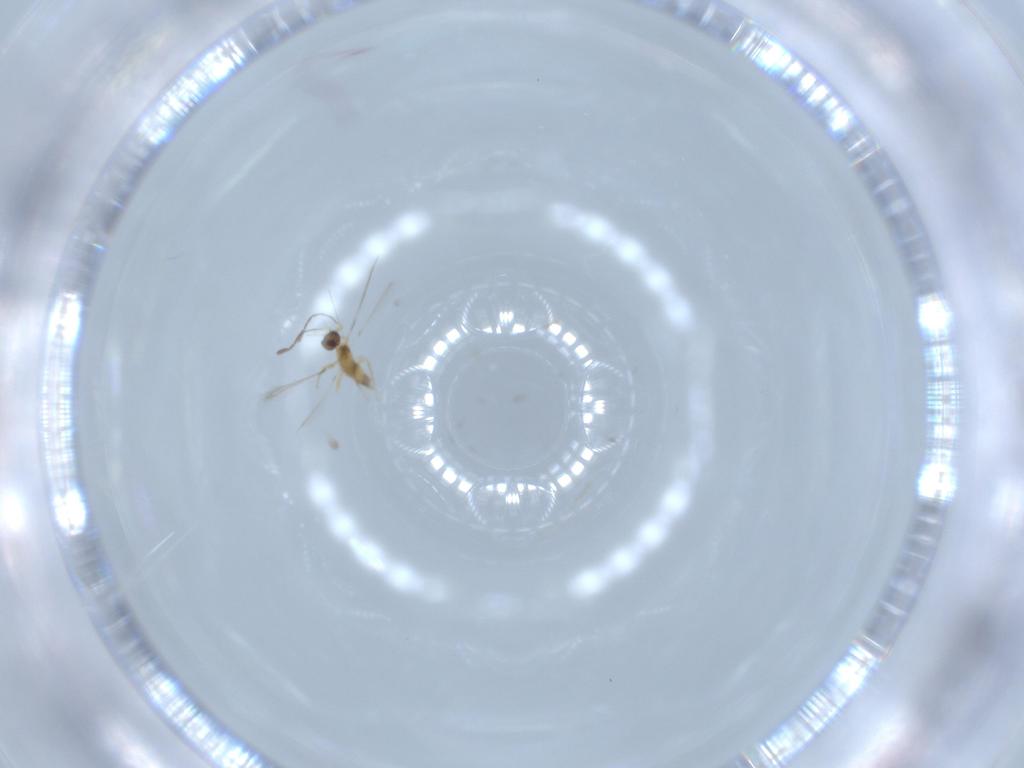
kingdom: Animalia
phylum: Arthropoda
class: Insecta
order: Hymenoptera
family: Mymaridae
